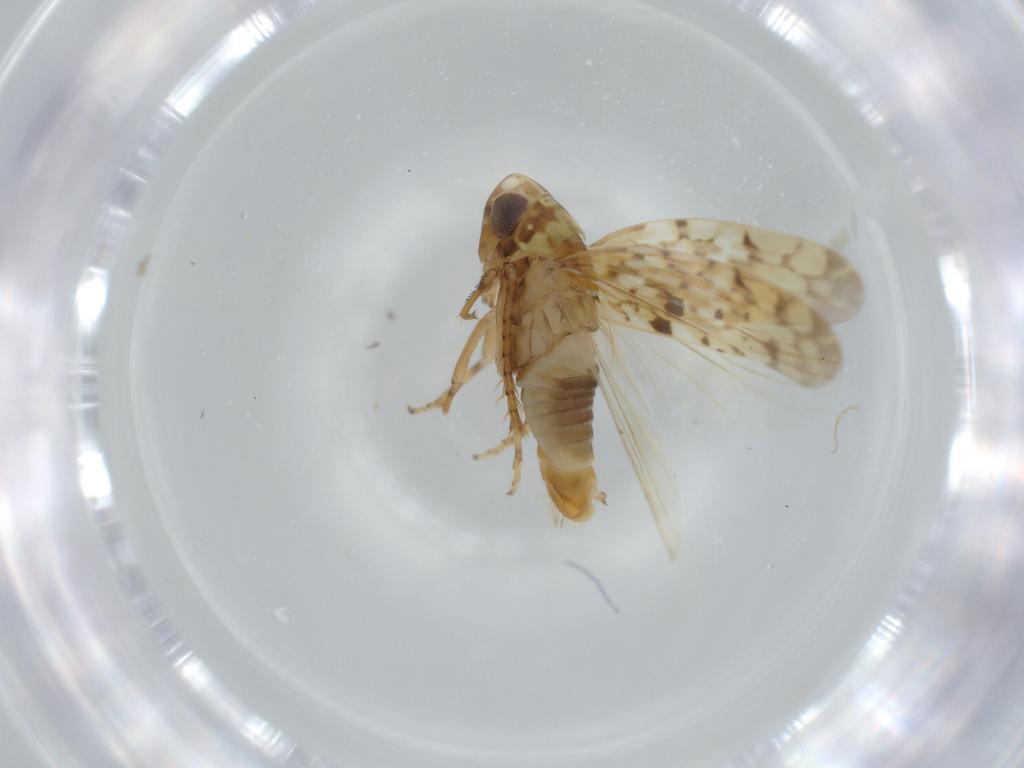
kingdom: Animalia
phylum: Arthropoda
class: Insecta
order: Hemiptera
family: Cicadellidae
